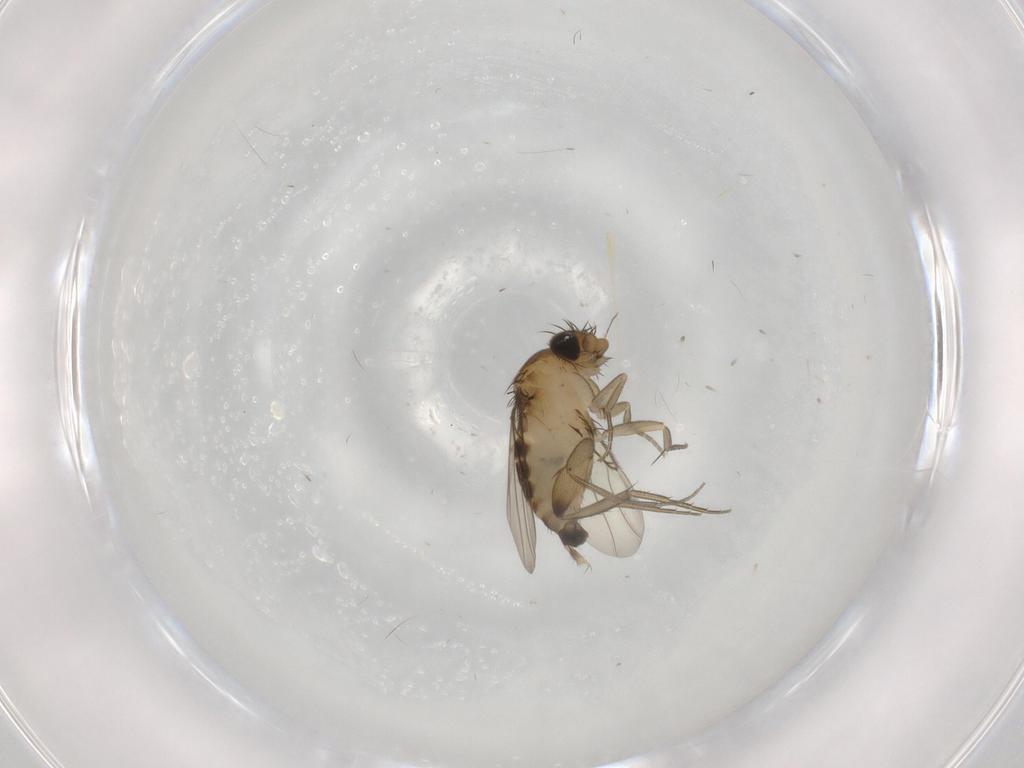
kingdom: Animalia
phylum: Arthropoda
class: Insecta
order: Diptera
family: Phoridae
